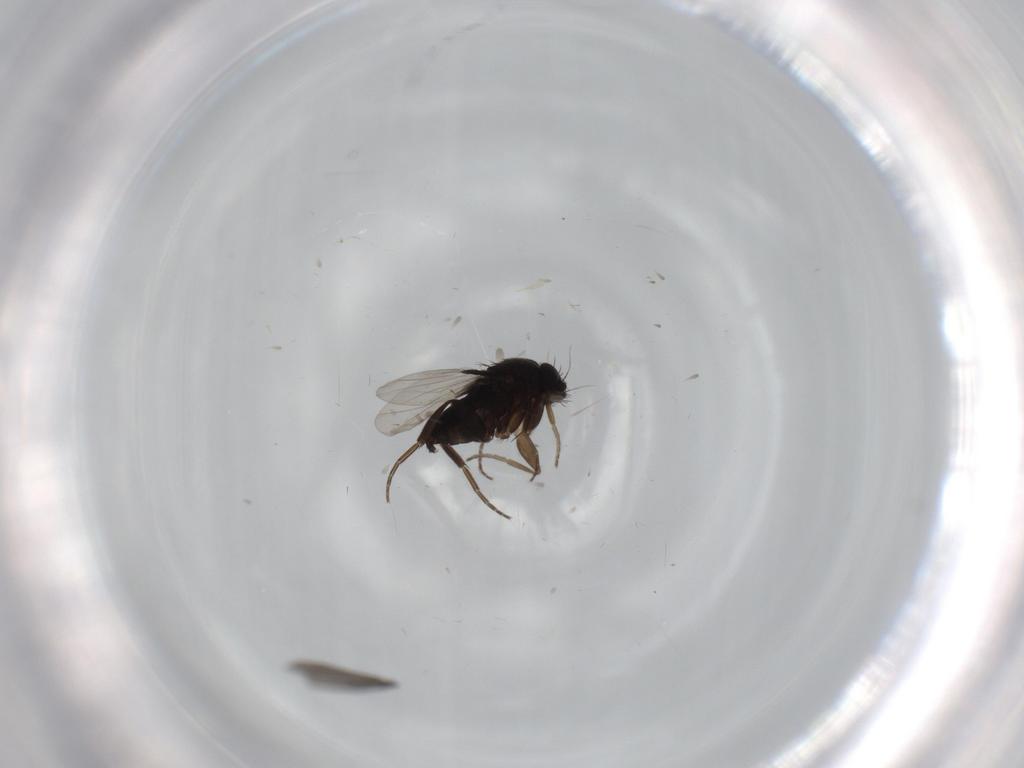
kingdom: Animalia
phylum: Arthropoda
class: Insecta
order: Diptera
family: Phoridae
